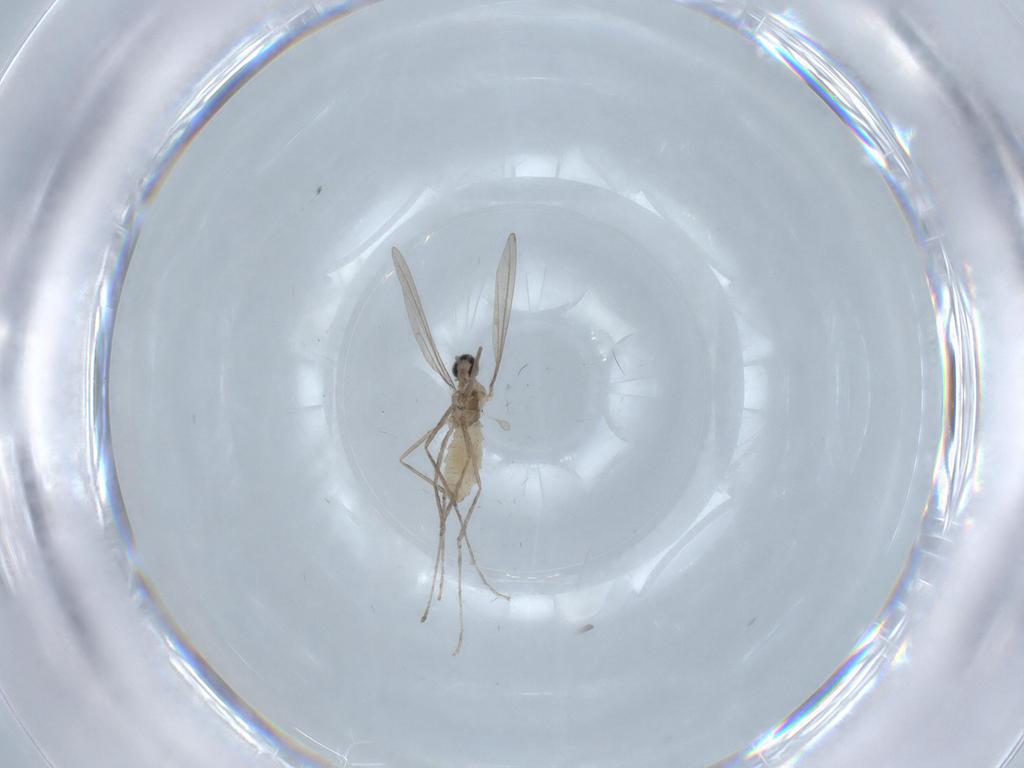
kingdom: Animalia
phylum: Arthropoda
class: Insecta
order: Diptera
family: Cecidomyiidae
